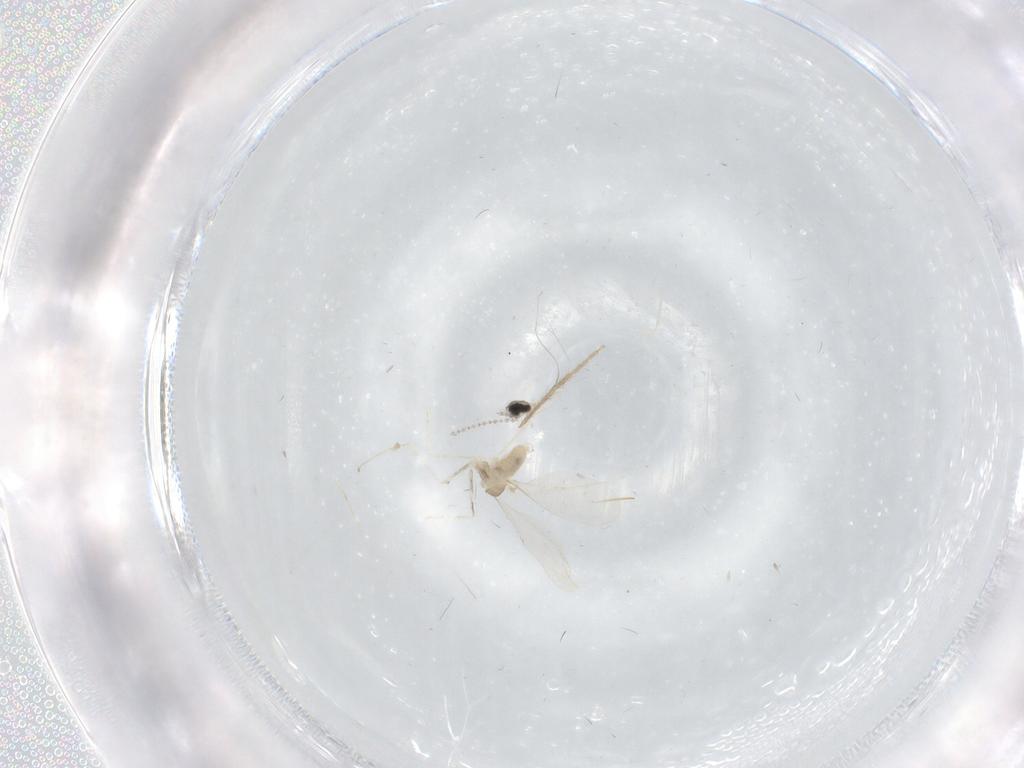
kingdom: Animalia
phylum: Arthropoda
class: Insecta
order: Diptera
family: Cecidomyiidae
